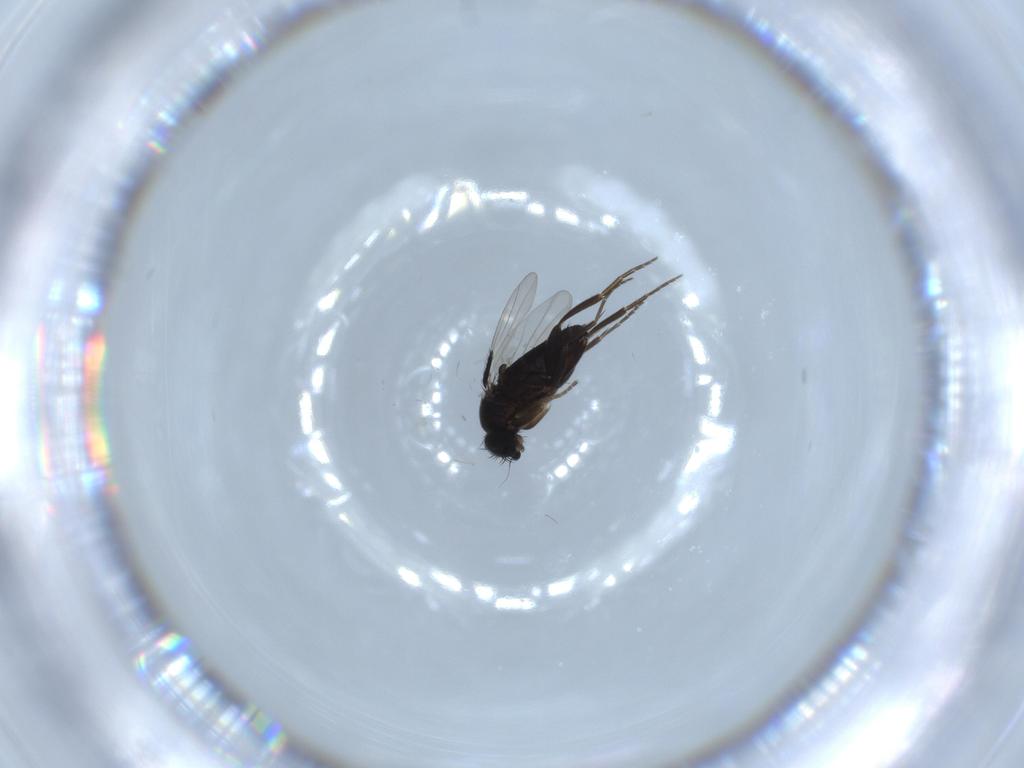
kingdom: Animalia
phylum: Arthropoda
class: Insecta
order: Diptera
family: Phoridae
